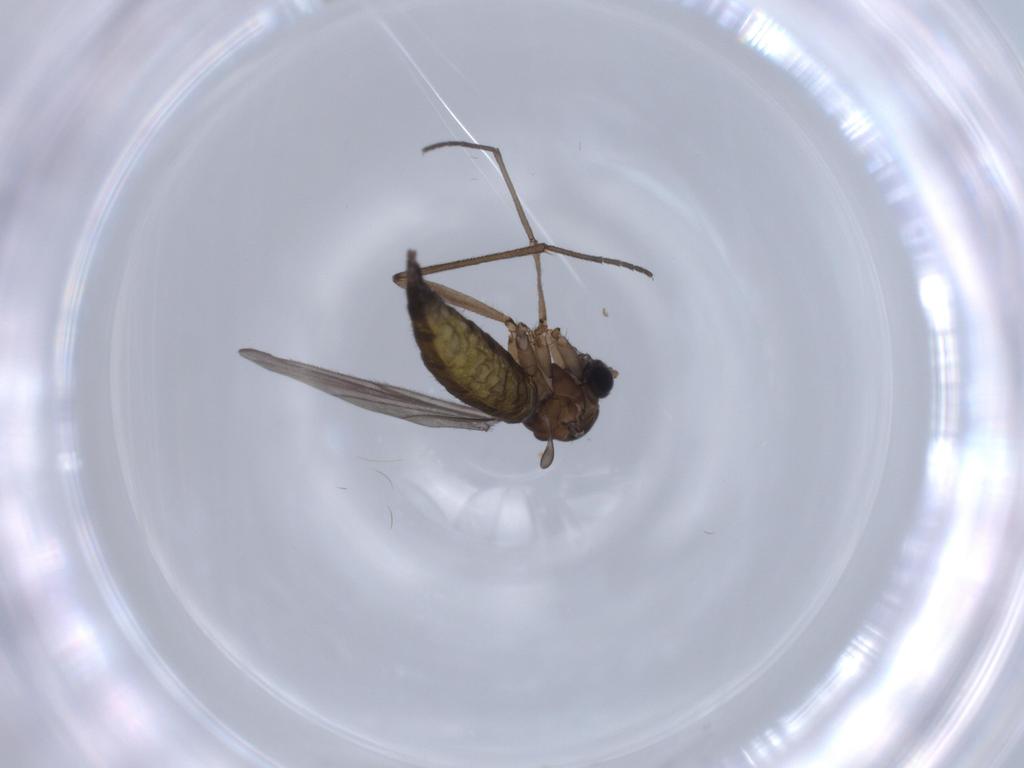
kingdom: Animalia
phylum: Arthropoda
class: Insecta
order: Diptera
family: Sciaridae
